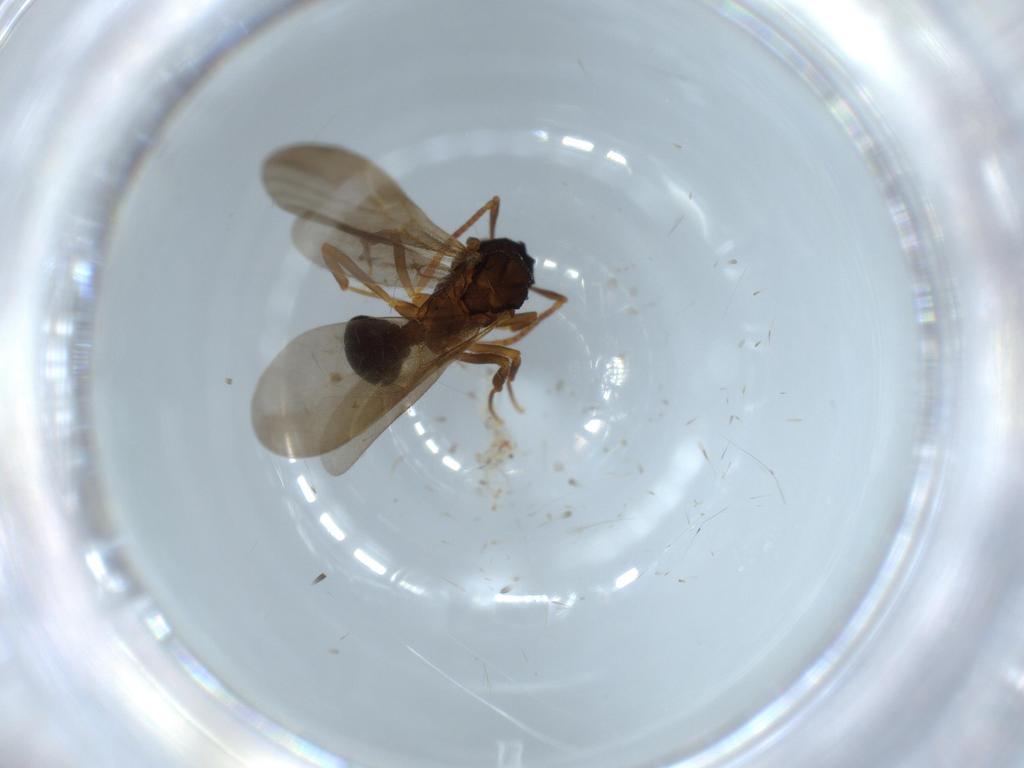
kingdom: Animalia
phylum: Arthropoda
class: Insecta
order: Hymenoptera
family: Formicidae
